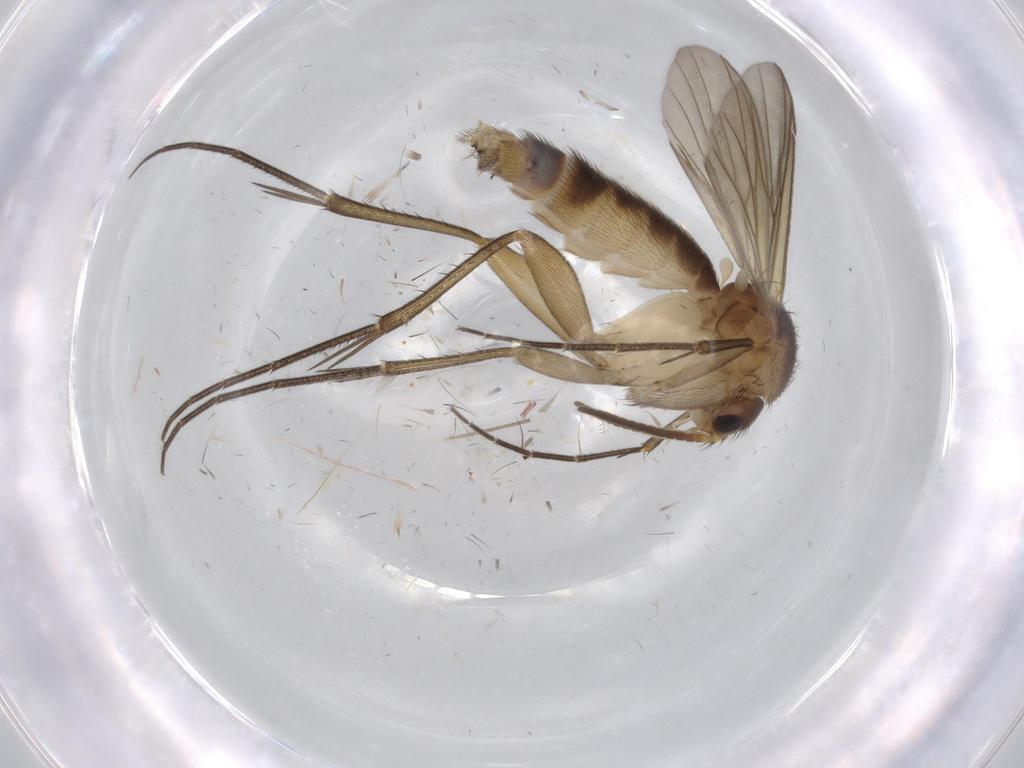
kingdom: Animalia
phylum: Arthropoda
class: Insecta
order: Diptera
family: Mycetophilidae
